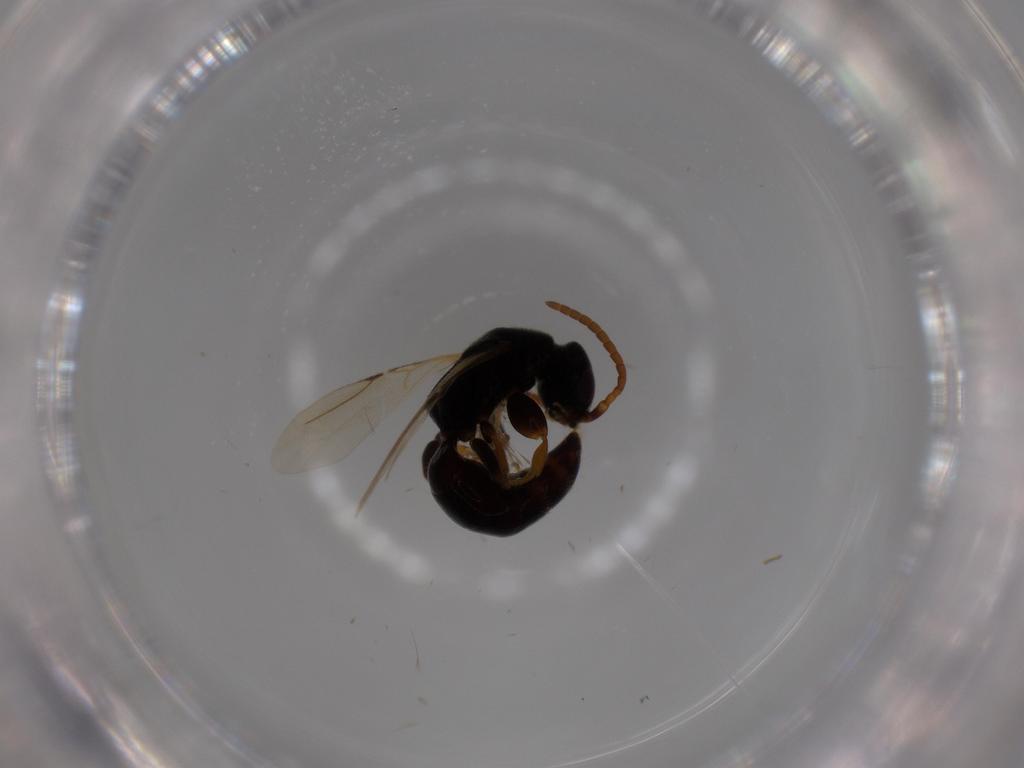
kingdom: Animalia
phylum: Arthropoda
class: Insecta
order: Hymenoptera
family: Bethylidae
